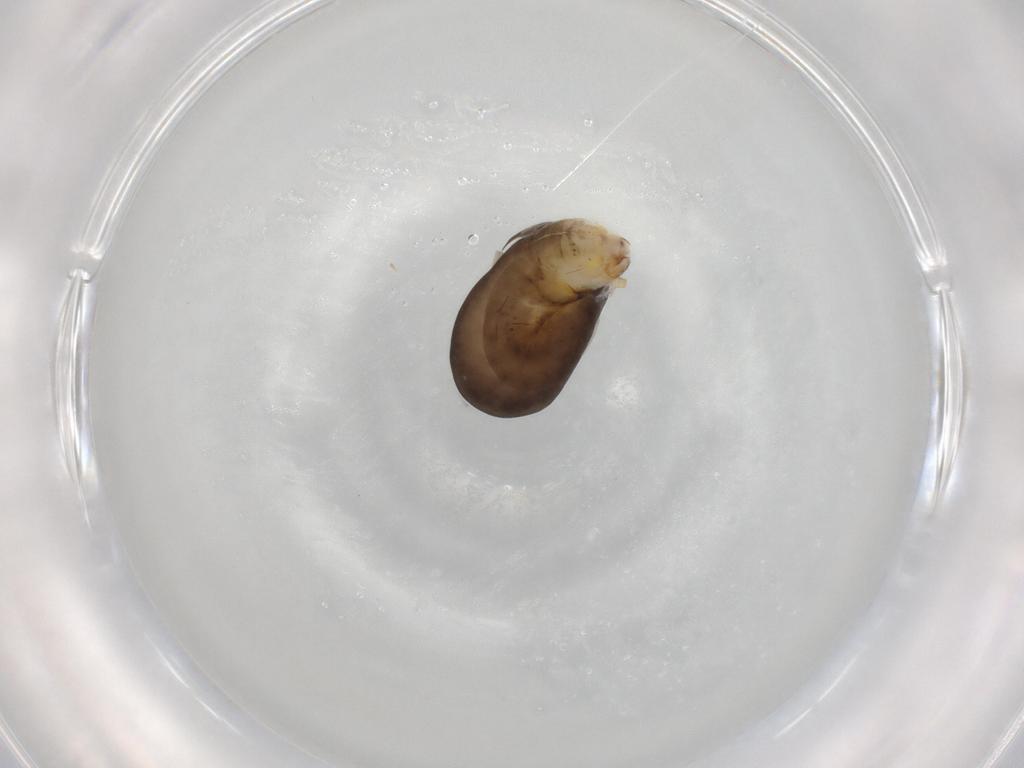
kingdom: Animalia
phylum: Arthropoda
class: Insecta
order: Hymenoptera
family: Dryinidae
